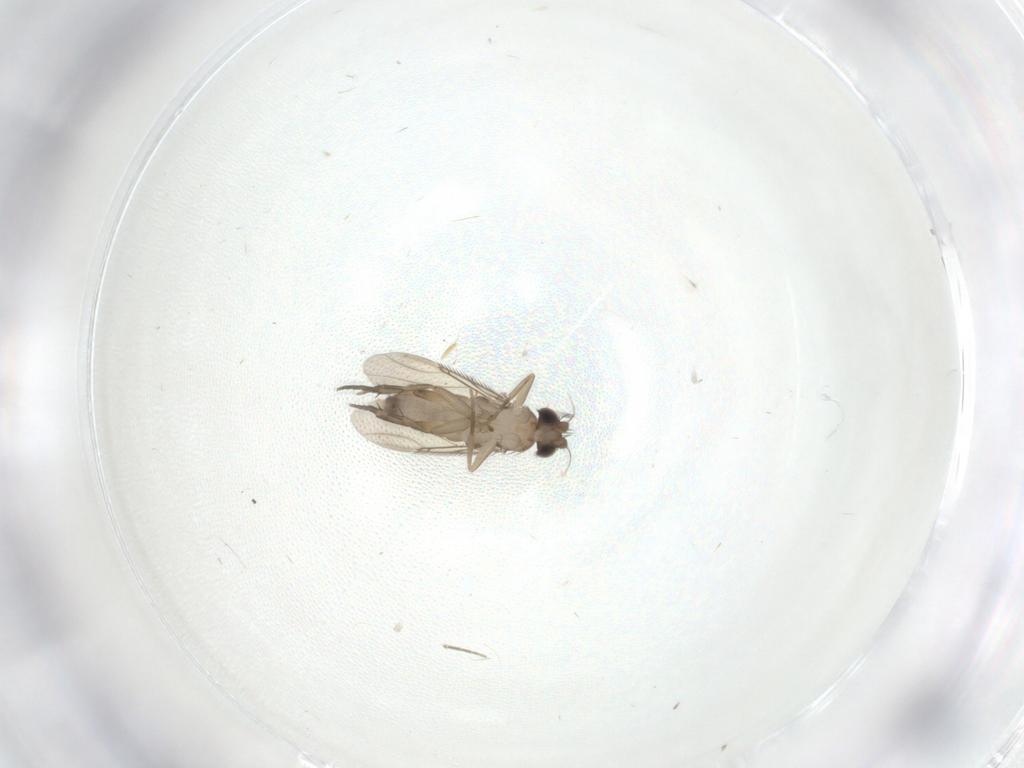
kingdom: Animalia
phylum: Arthropoda
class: Insecta
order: Diptera
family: Phoridae
